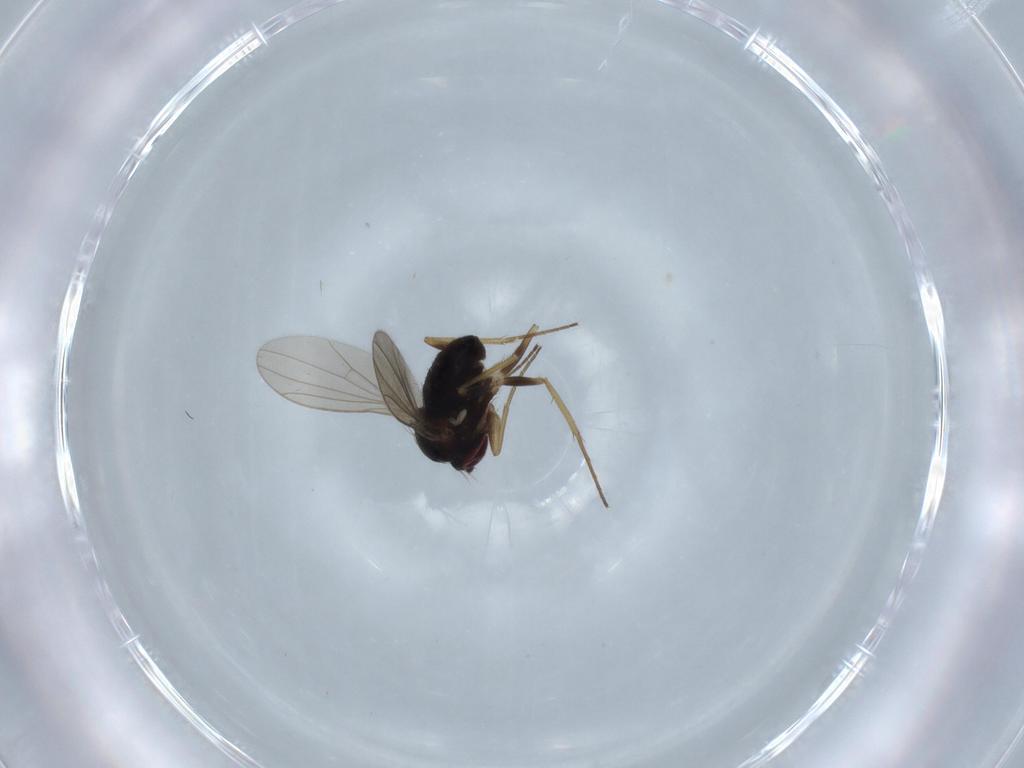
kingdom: Animalia
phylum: Arthropoda
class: Insecta
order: Diptera
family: Dolichopodidae
